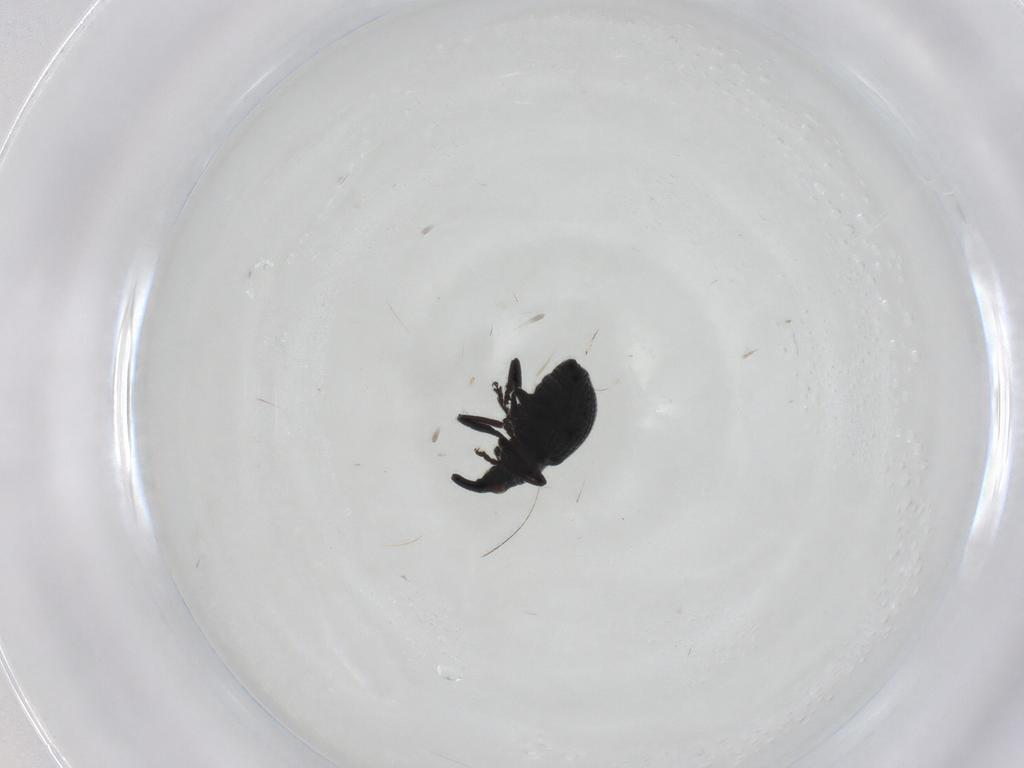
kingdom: Animalia
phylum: Arthropoda
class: Insecta
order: Coleoptera
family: Brentidae
